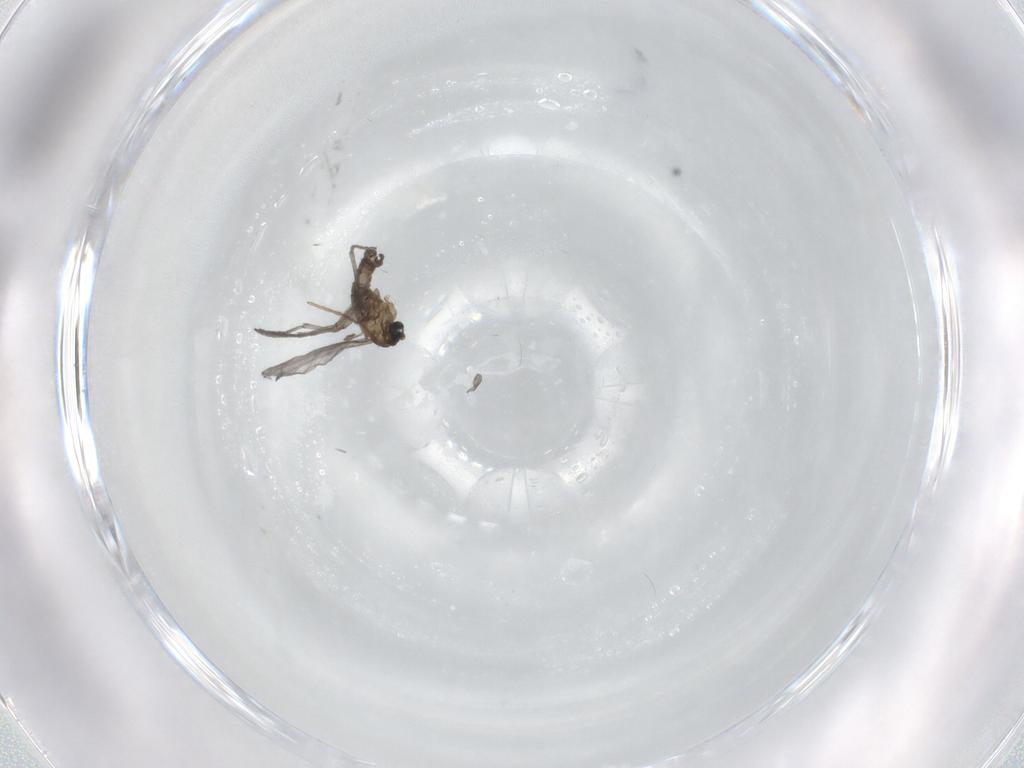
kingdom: Animalia
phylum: Arthropoda
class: Insecta
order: Diptera
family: Sciaridae
